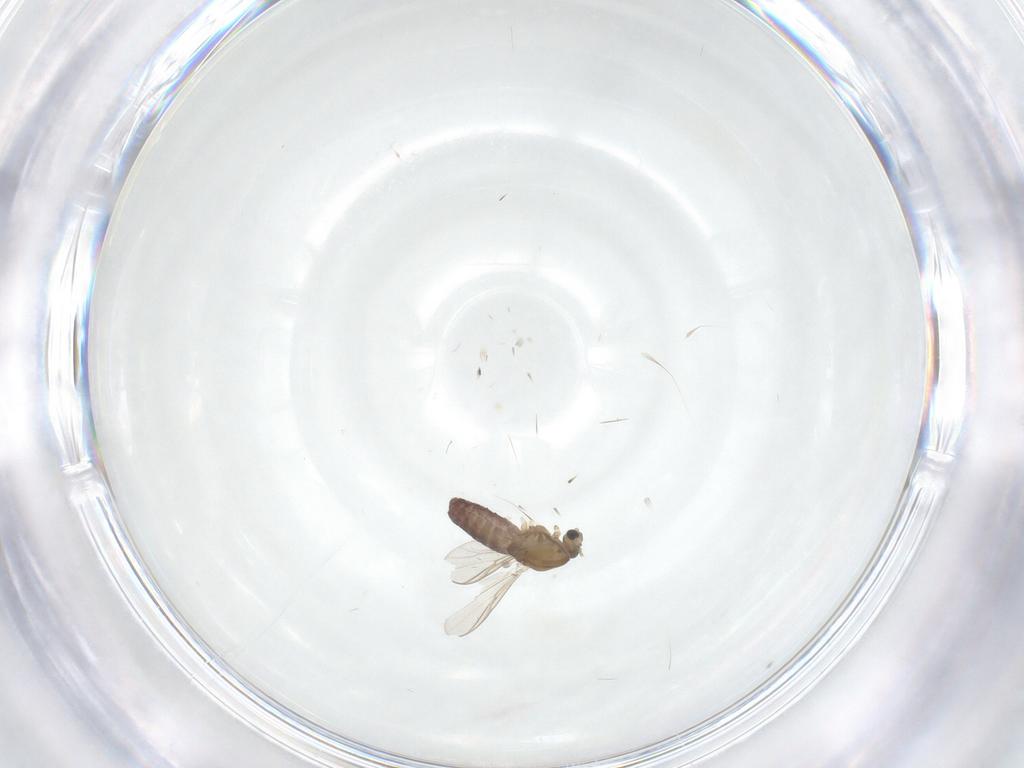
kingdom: Animalia
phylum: Arthropoda
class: Insecta
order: Diptera
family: Chironomidae
